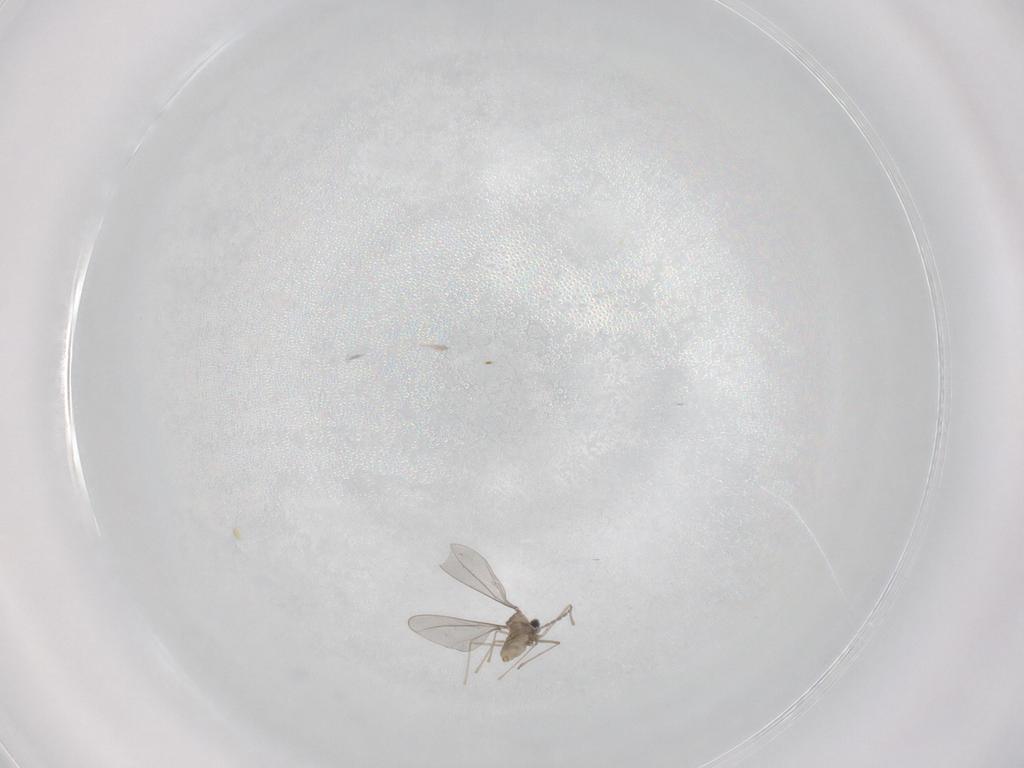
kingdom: Animalia
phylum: Arthropoda
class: Insecta
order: Diptera
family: Cecidomyiidae
